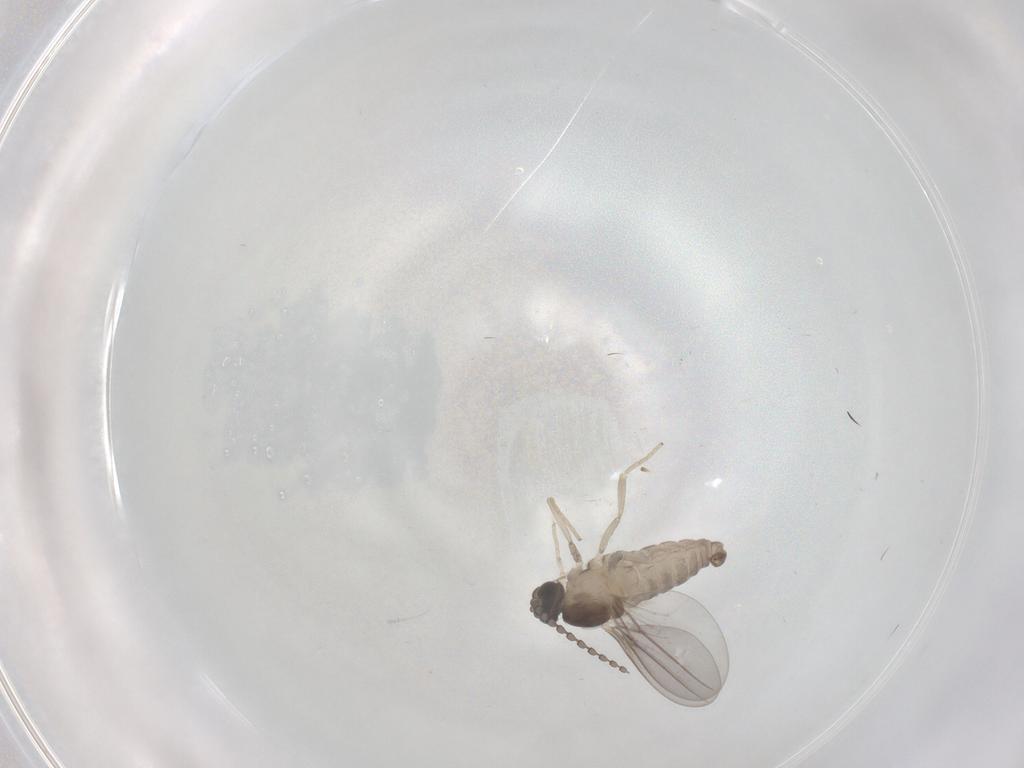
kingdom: Animalia
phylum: Arthropoda
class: Insecta
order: Diptera
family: Cecidomyiidae
